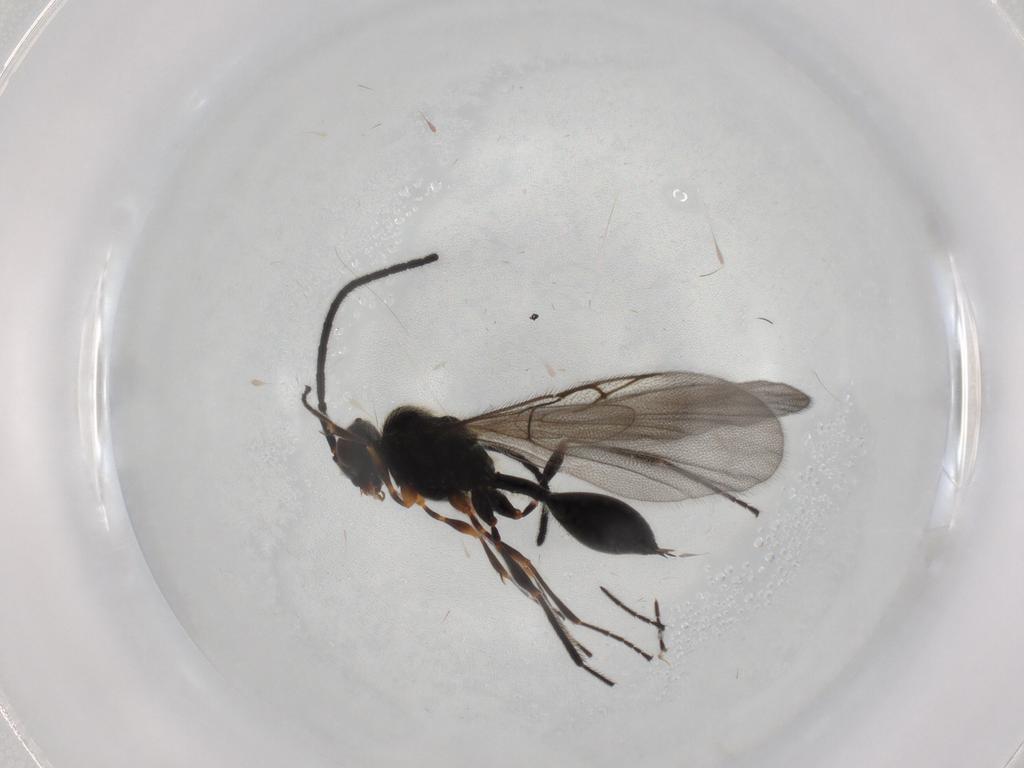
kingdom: Animalia
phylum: Arthropoda
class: Insecta
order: Hymenoptera
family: Diapriidae
